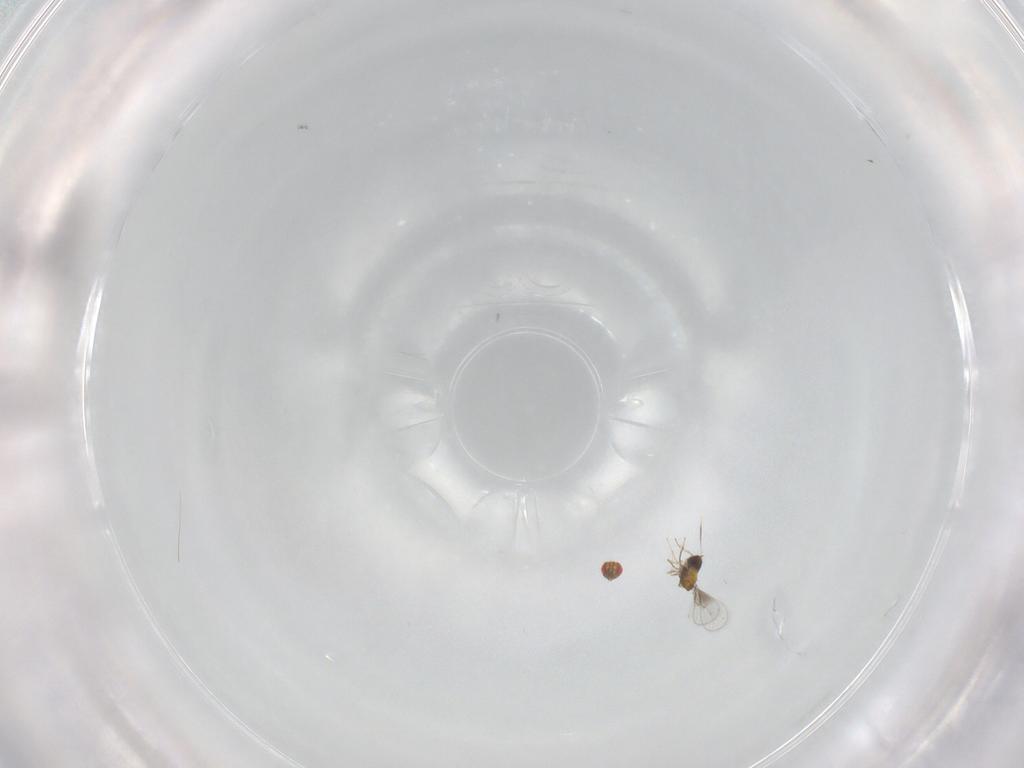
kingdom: Animalia
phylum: Arthropoda
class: Insecta
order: Hymenoptera
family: Trichogrammatidae
